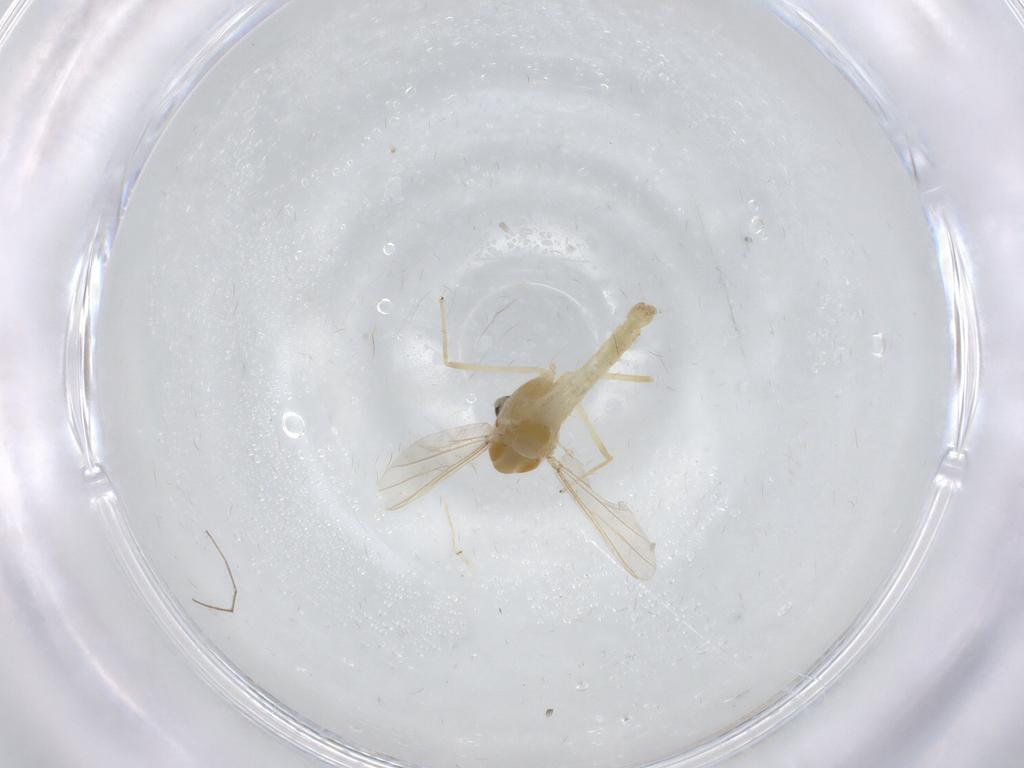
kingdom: Animalia
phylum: Arthropoda
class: Insecta
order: Diptera
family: Chironomidae
